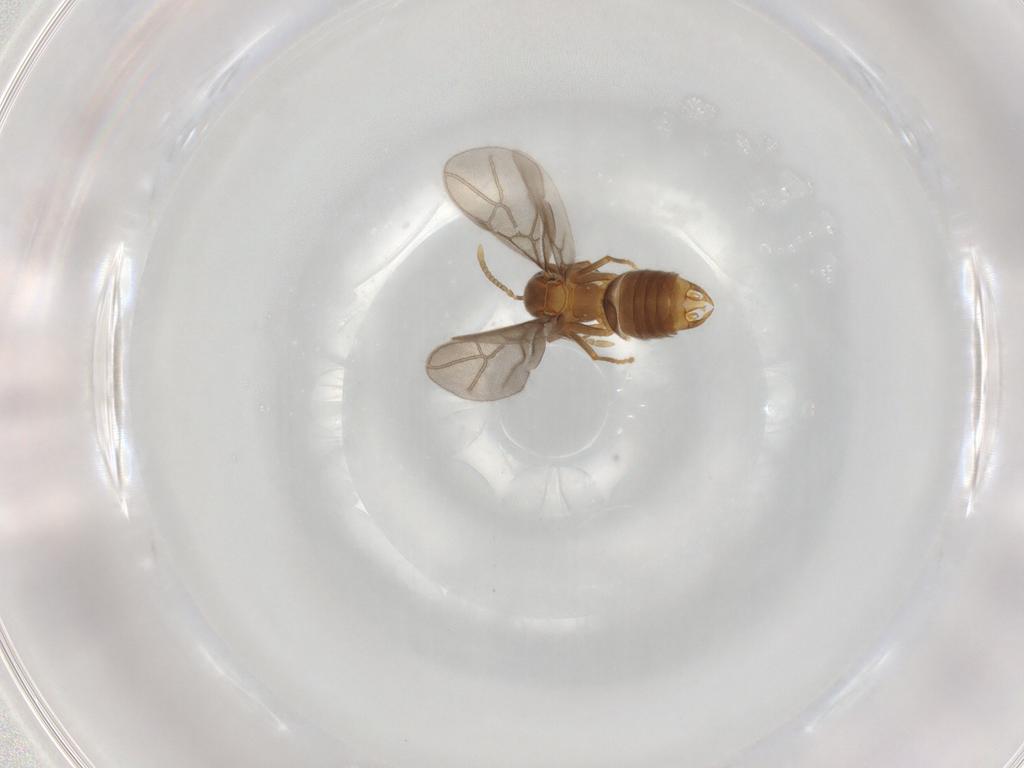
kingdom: Animalia
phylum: Arthropoda
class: Insecta
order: Hymenoptera
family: Formicidae
